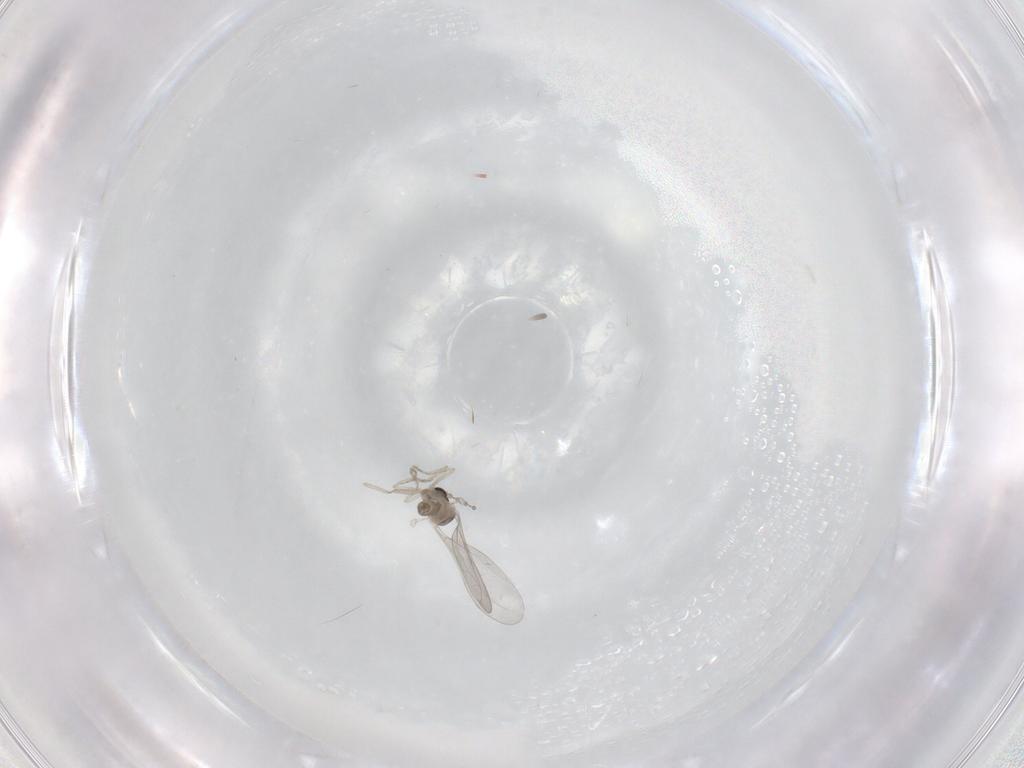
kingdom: Animalia
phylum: Arthropoda
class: Insecta
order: Diptera
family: Cecidomyiidae
